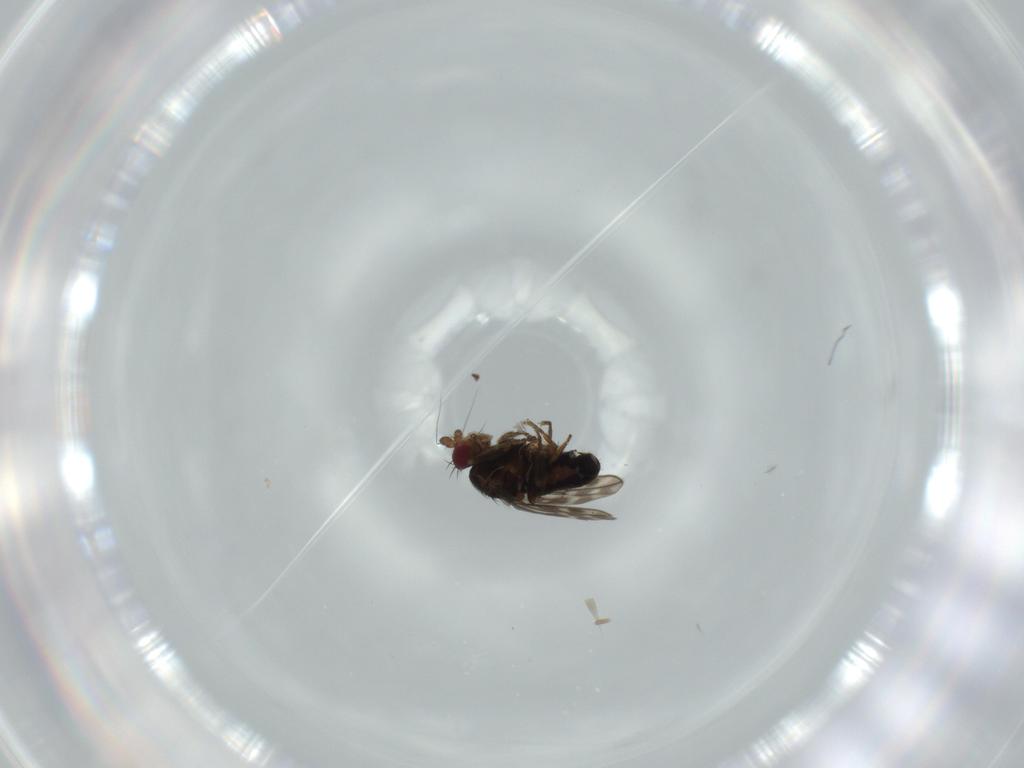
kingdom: Animalia
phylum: Arthropoda
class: Insecta
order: Diptera
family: Sphaeroceridae
